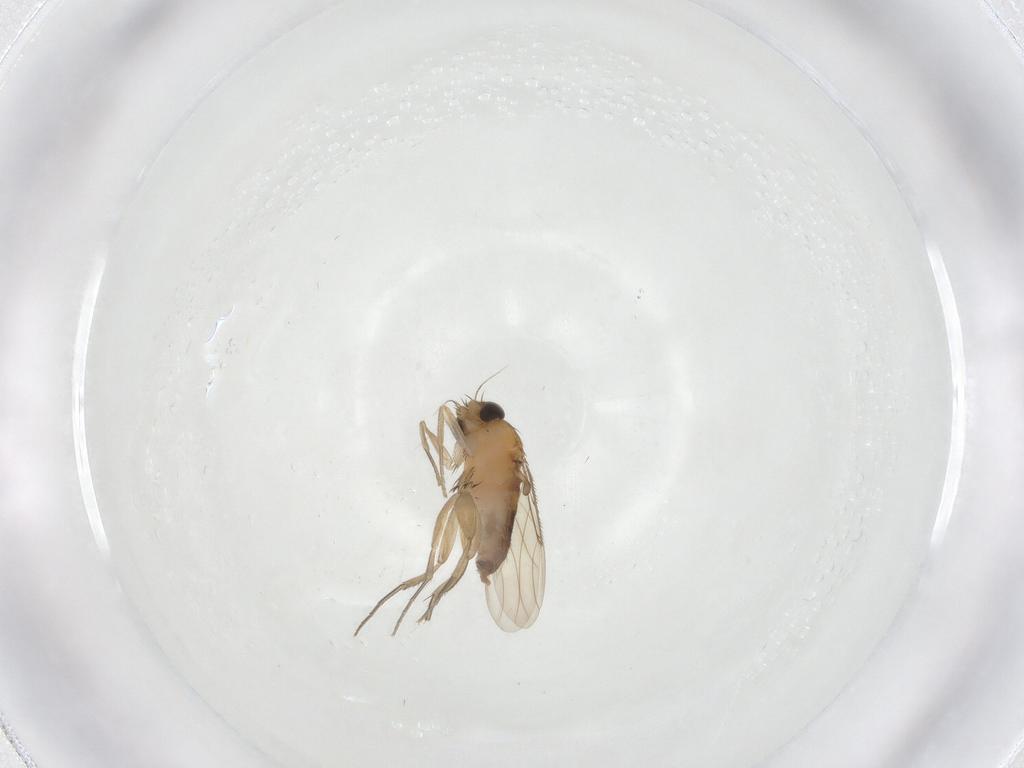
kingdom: Animalia
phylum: Arthropoda
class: Insecta
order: Diptera
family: Phoridae
